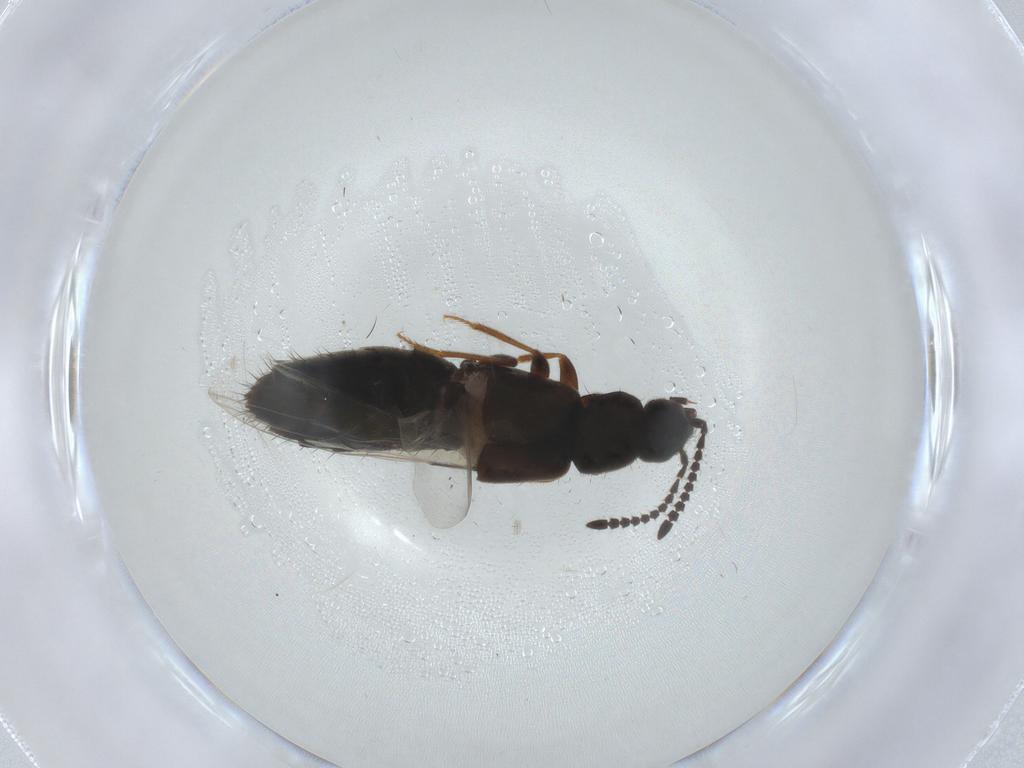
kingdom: Animalia
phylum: Arthropoda
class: Insecta
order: Coleoptera
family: Staphylinidae
